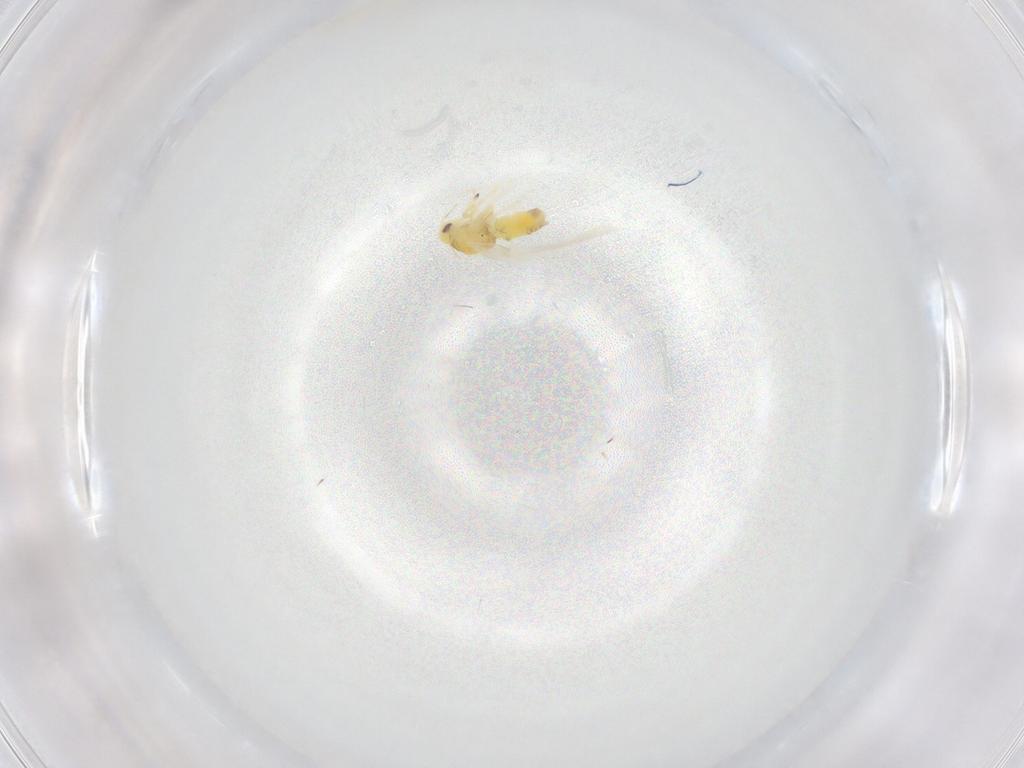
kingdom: Animalia
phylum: Arthropoda
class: Insecta
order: Hemiptera
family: Aleyrodidae
